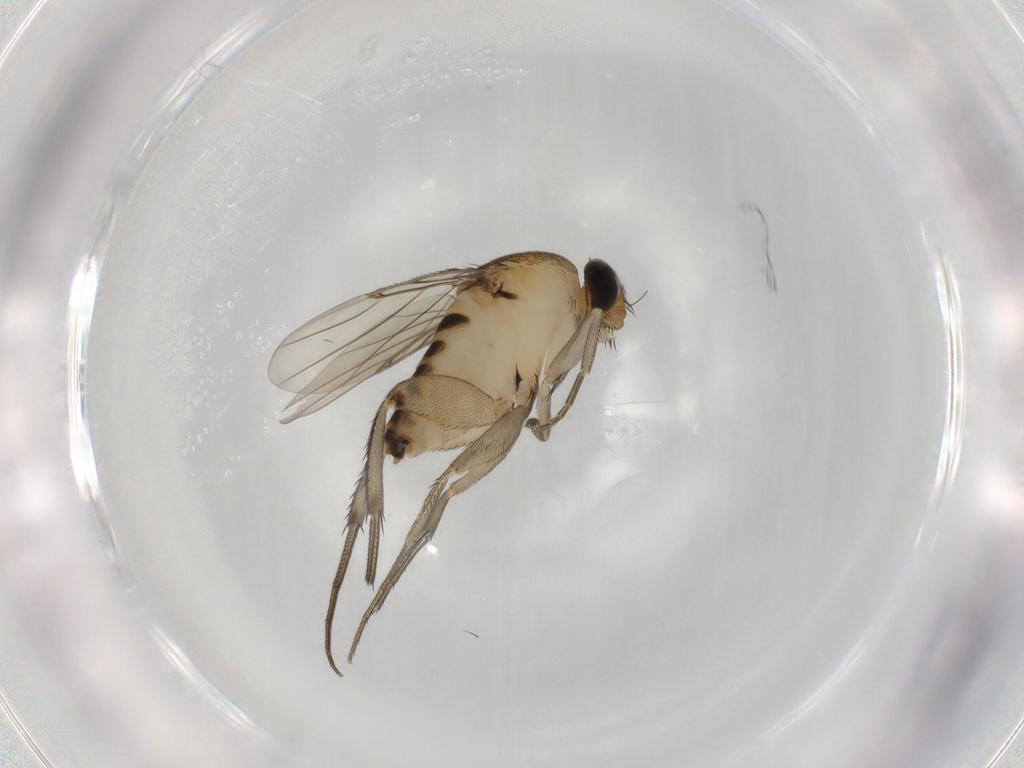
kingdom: Animalia
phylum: Arthropoda
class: Insecta
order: Diptera
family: Phoridae
